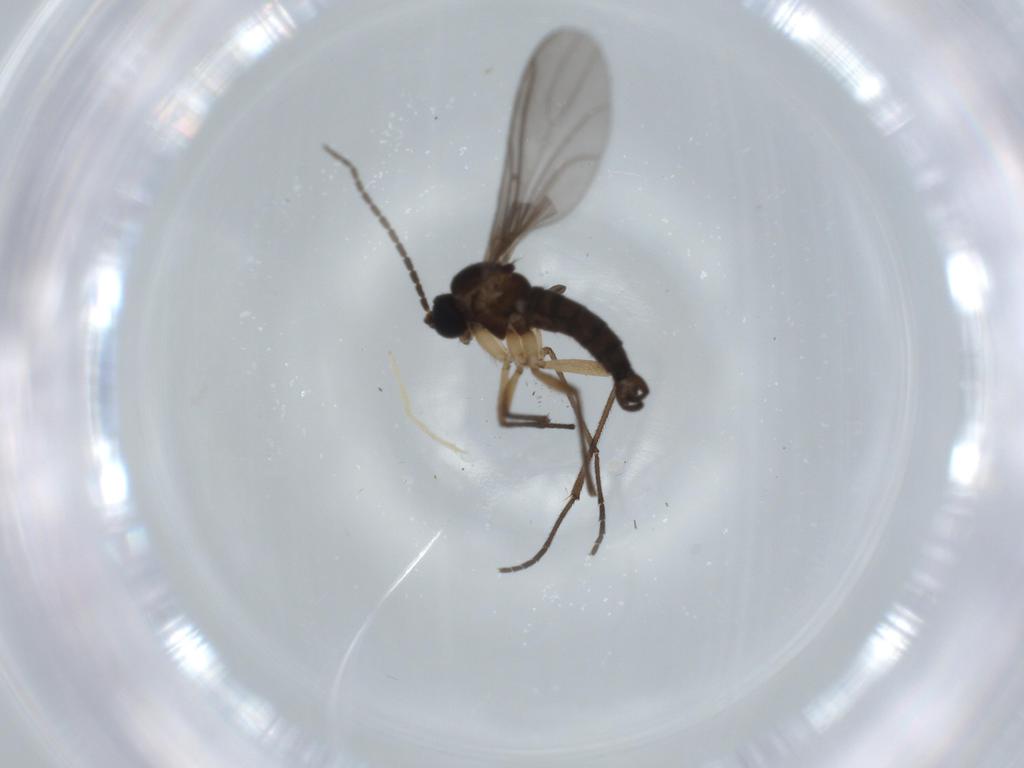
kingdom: Animalia
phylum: Arthropoda
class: Insecta
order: Diptera
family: Sciaridae
